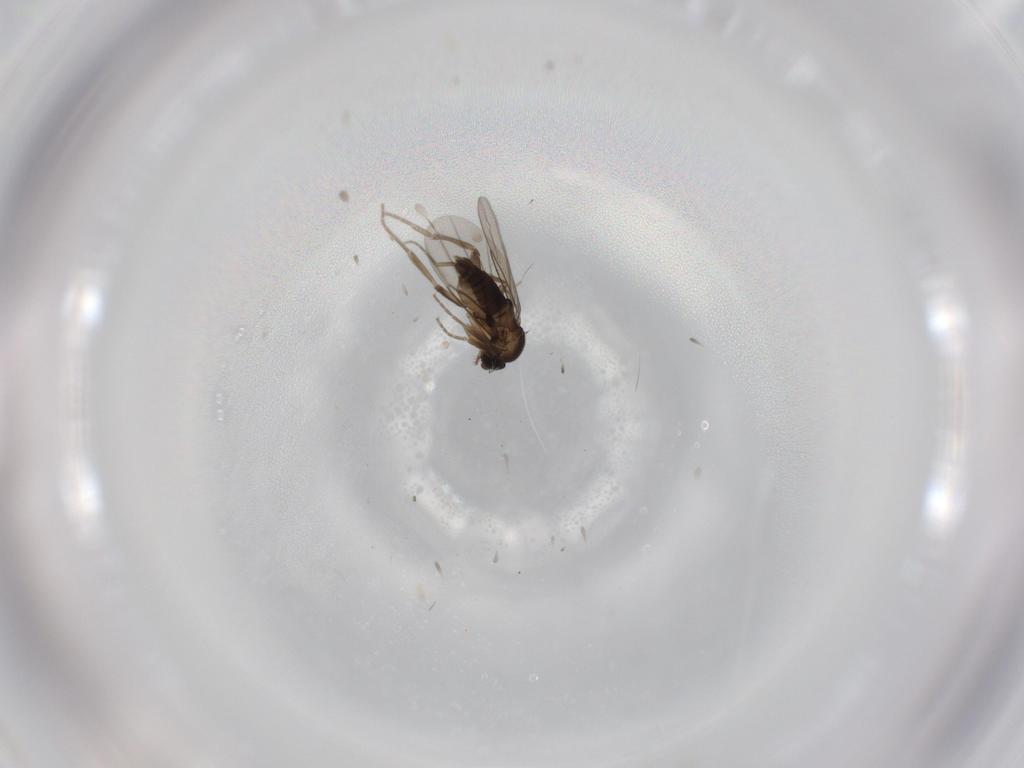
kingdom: Animalia
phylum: Arthropoda
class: Insecta
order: Diptera
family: Phoridae
